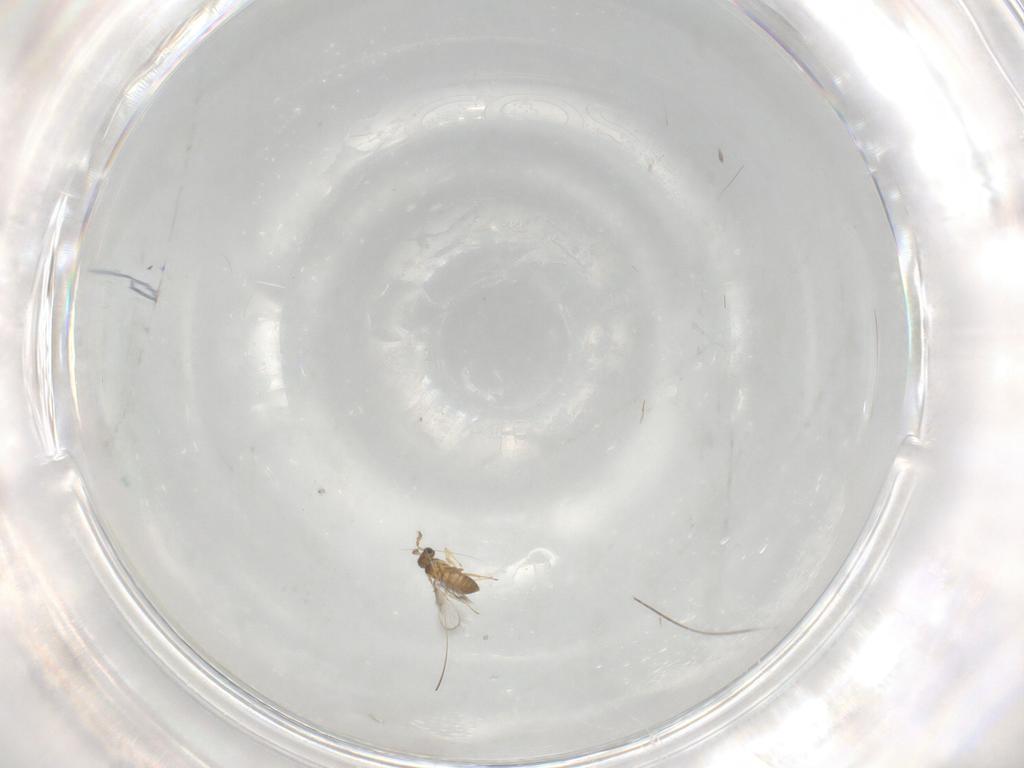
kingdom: Animalia
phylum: Arthropoda
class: Insecta
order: Hymenoptera
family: Trichogrammatidae
